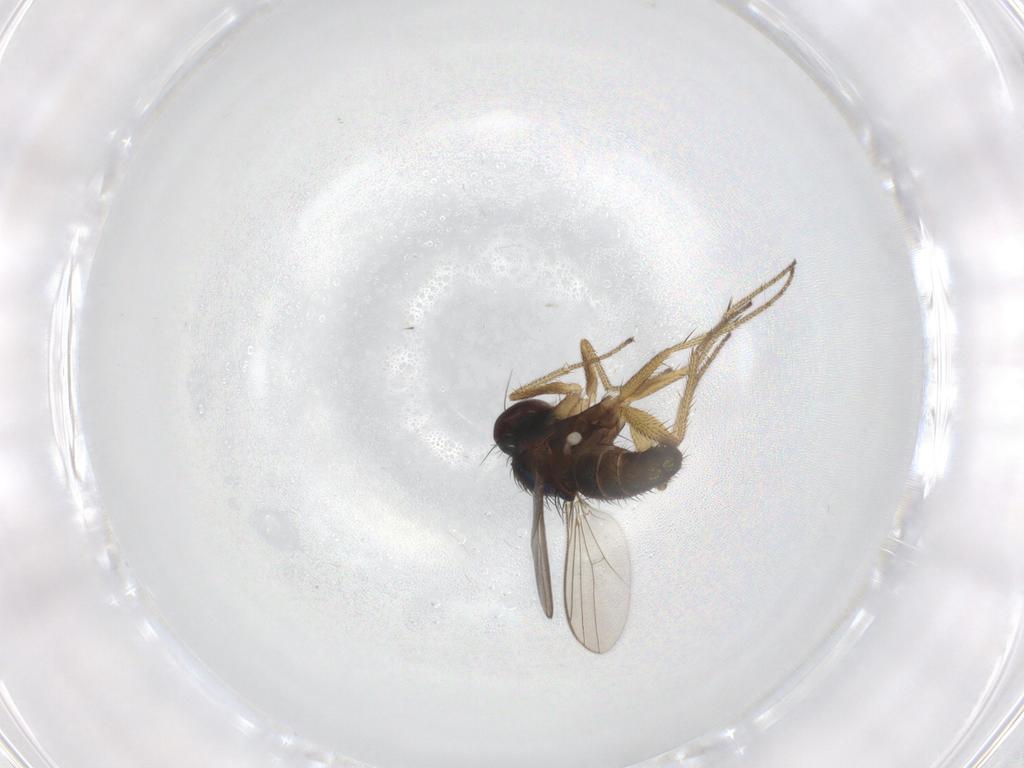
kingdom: Animalia
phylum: Arthropoda
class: Insecta
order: Diptera
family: Dolichopodidae
